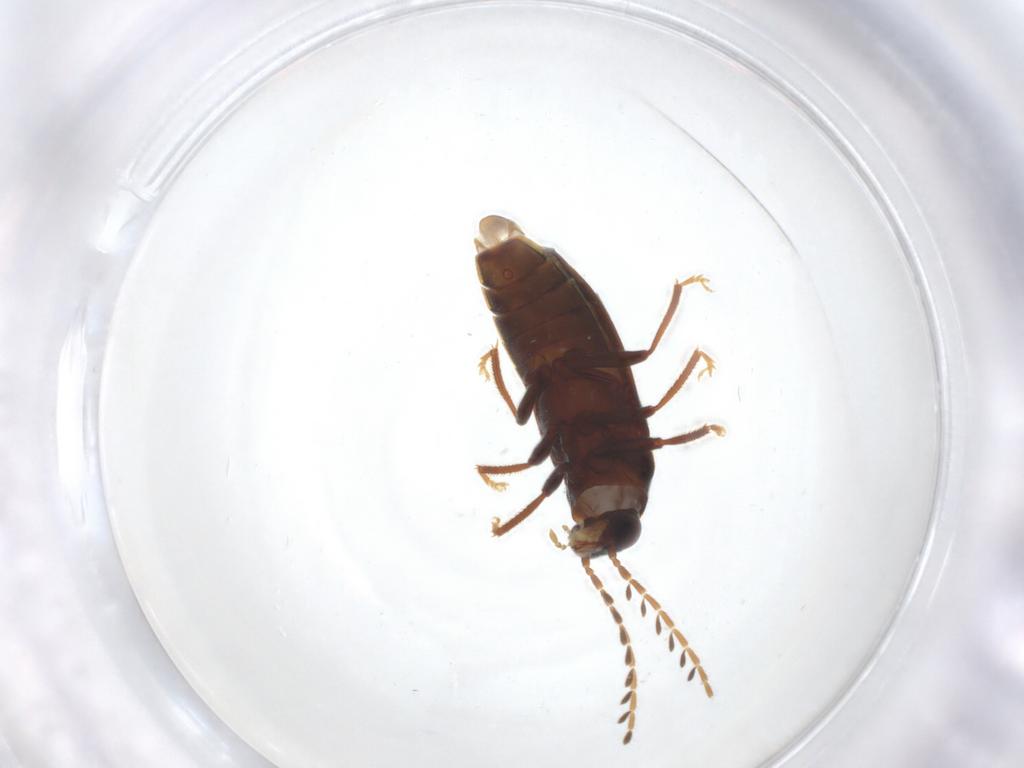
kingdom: Animalia
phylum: Arthropoda
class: Insecta
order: Coleoptera
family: Ptilodactylidae
